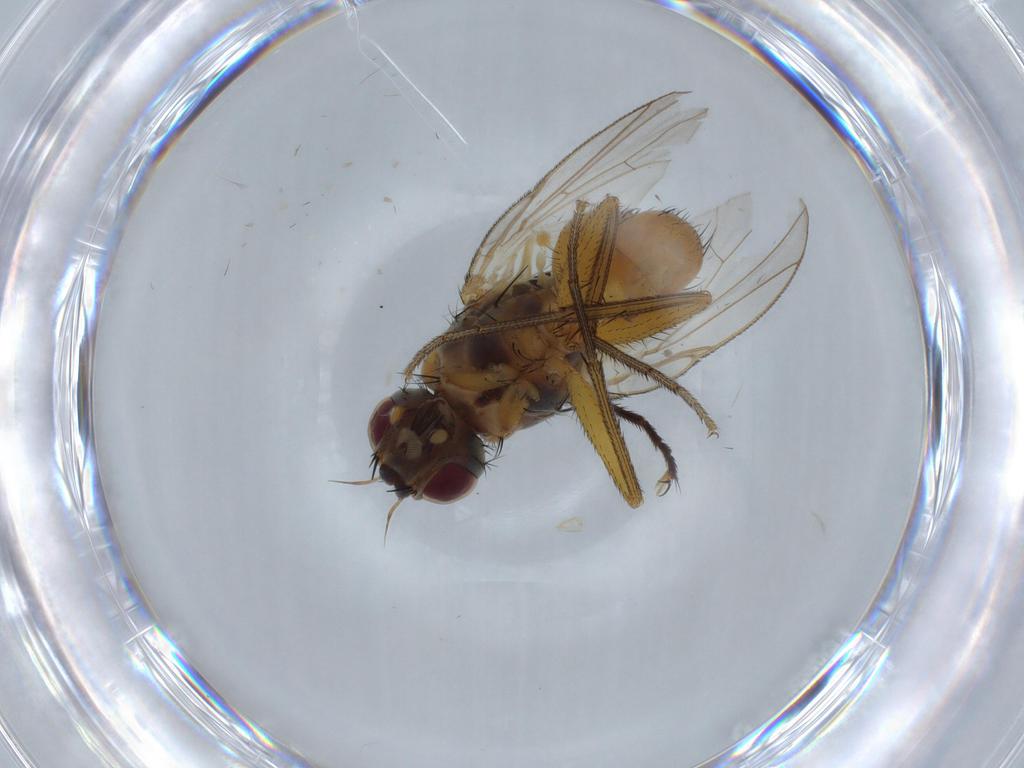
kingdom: Animalia
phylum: Arthropoda
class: Insecta
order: Diptera
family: Muscidae
